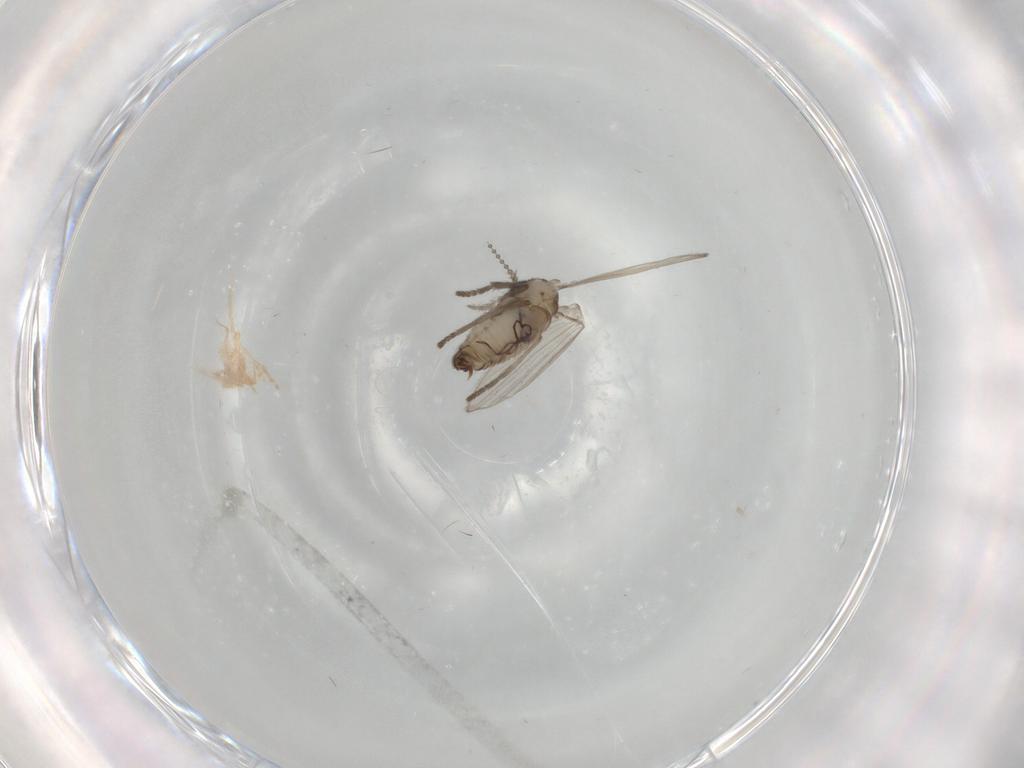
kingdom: Animalia
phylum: Arthropoda
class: Insecta
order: Diptera
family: Psychodidae
